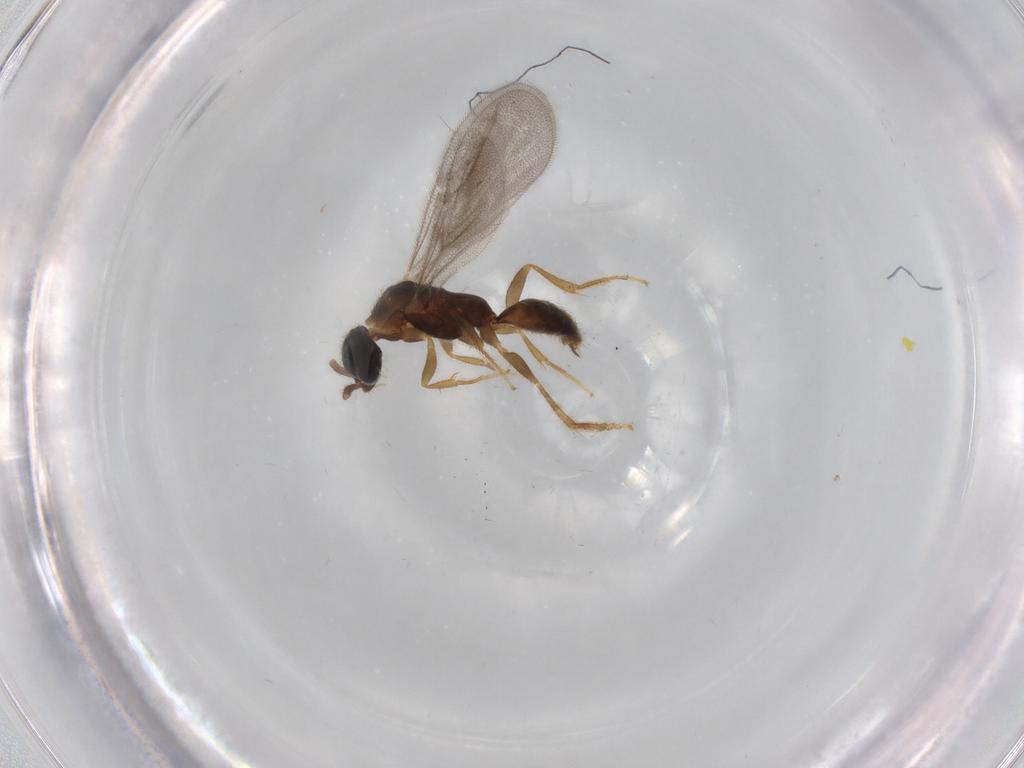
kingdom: Animalia
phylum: Arthropoda
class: Insecta
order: Hymenoptera
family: Bethylidae
